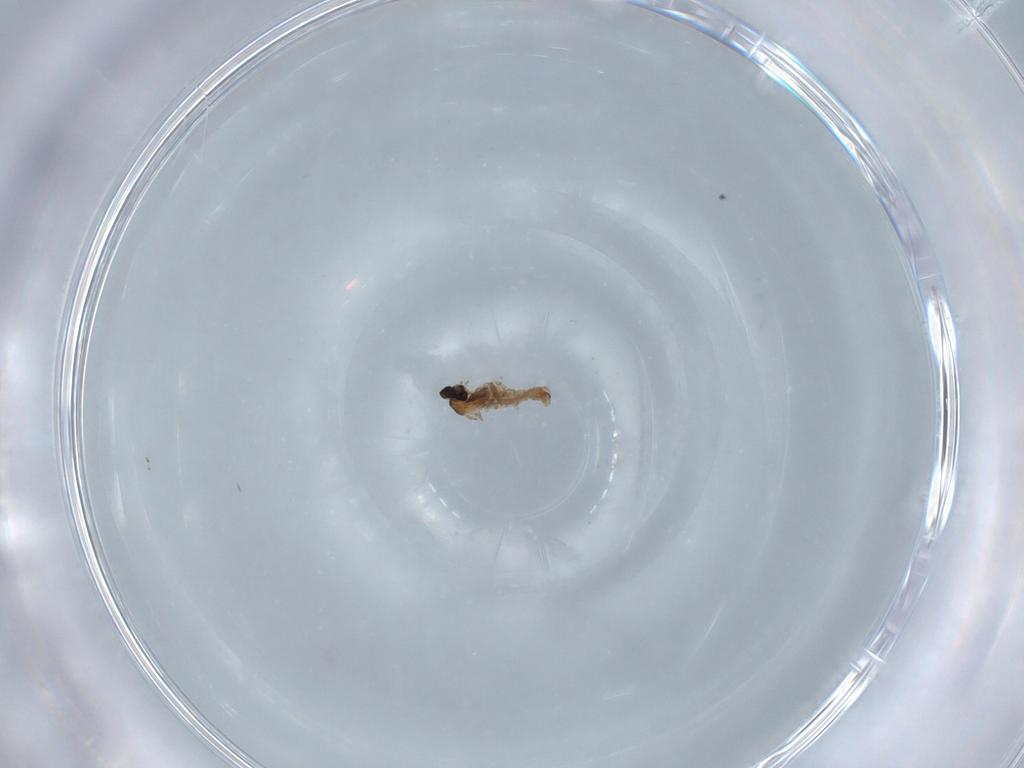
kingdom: Animalia
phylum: Arthropoda
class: Insecta
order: Diptera
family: Cecidomyiidae
